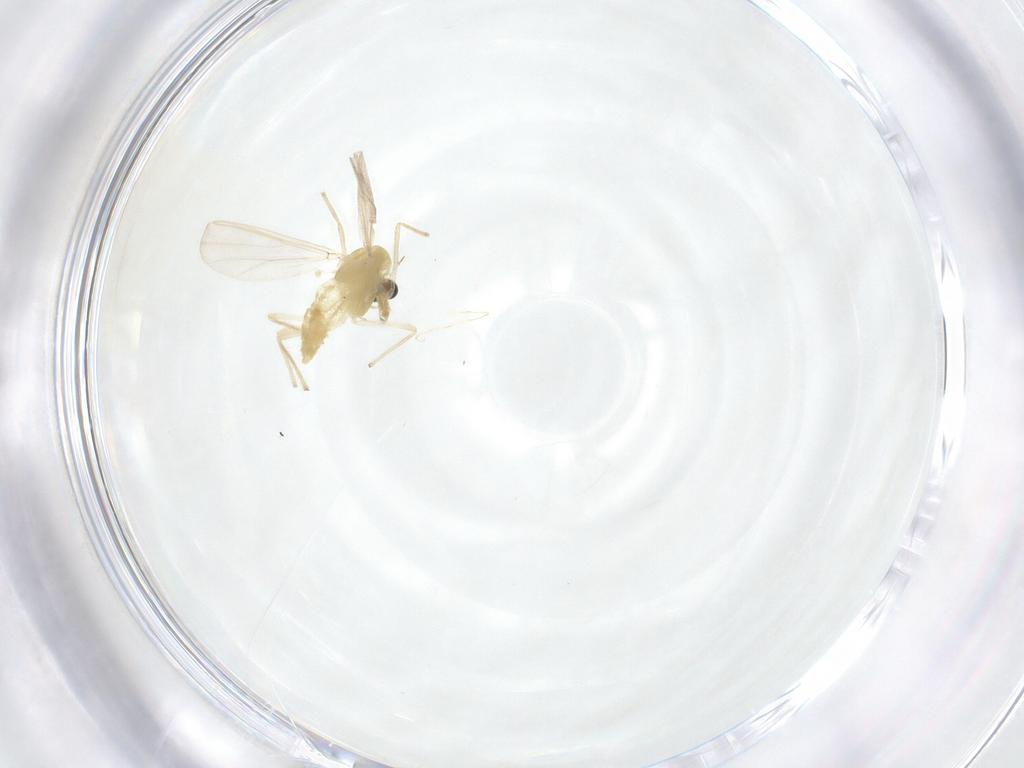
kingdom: Animalia
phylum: Arthropoda
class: Insecta
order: Diptera
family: Chironomidae
